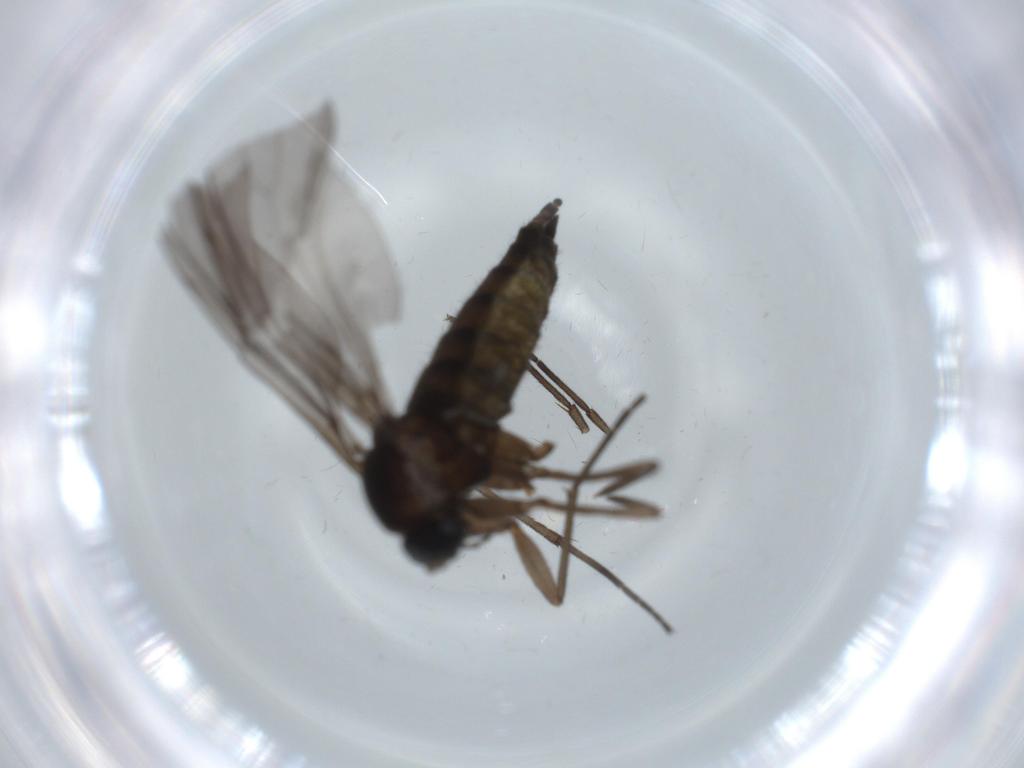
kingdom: Animalia
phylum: Arthropoda
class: Insecta
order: Diptera
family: Sciaridae
